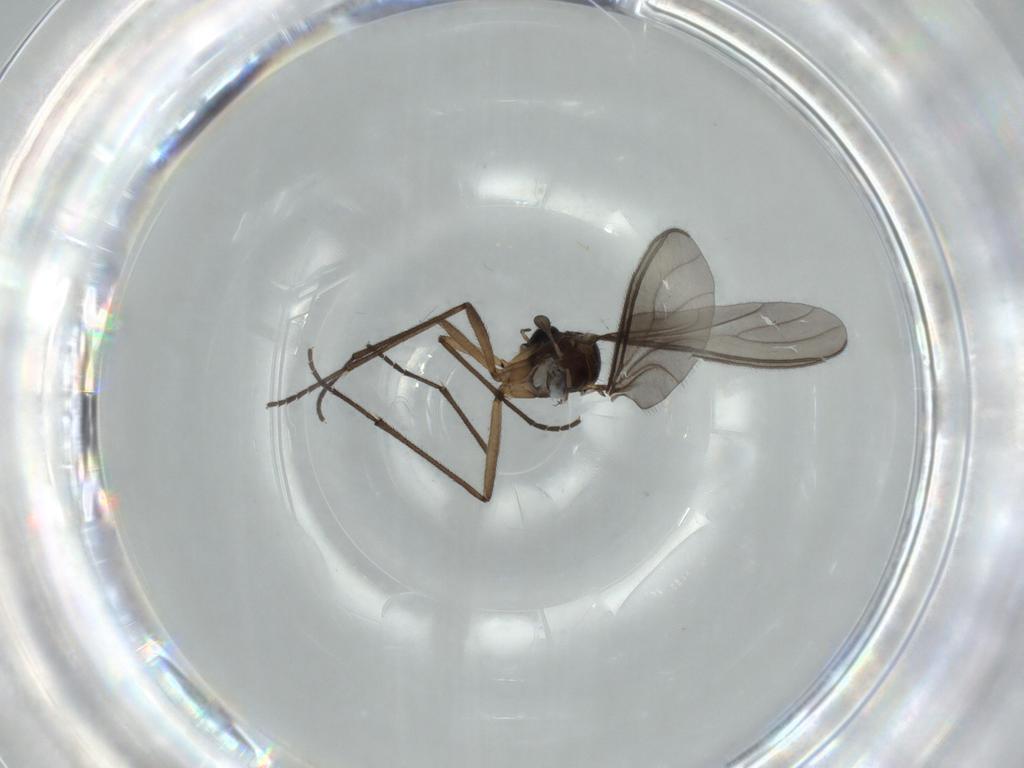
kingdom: Animalia
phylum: Arthropoda
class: Insecta
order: Diptera
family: Sciaridae
